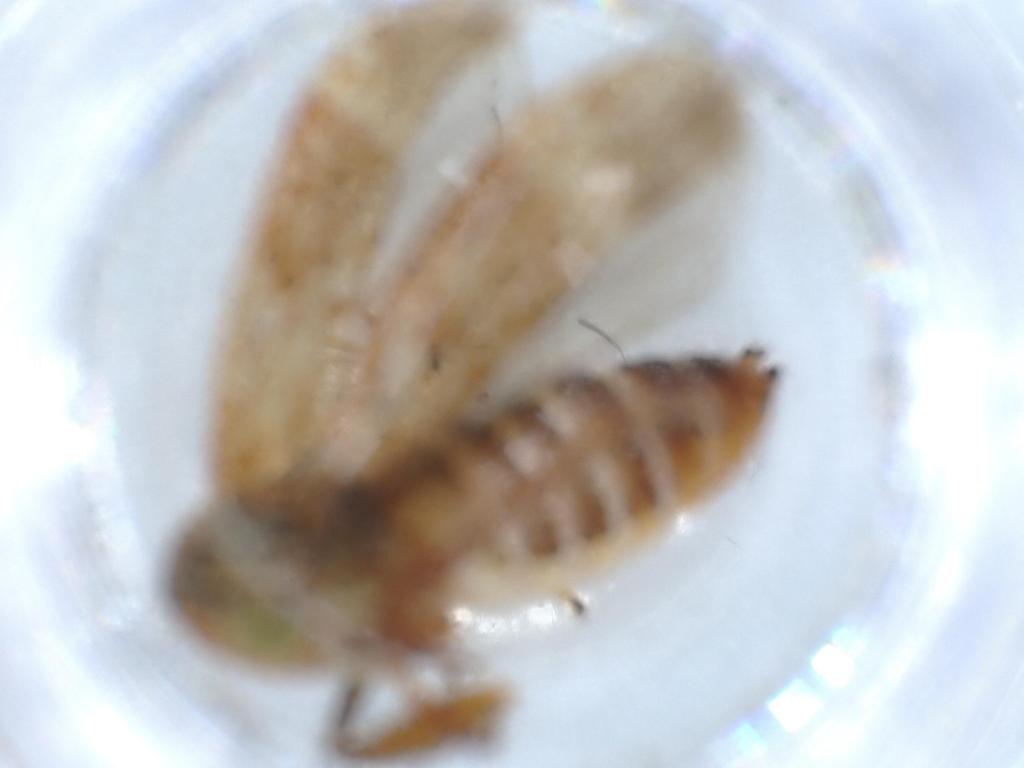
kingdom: Animalia
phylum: Arthropoda
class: Insecta
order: Hemiptera
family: Cicadellidae
